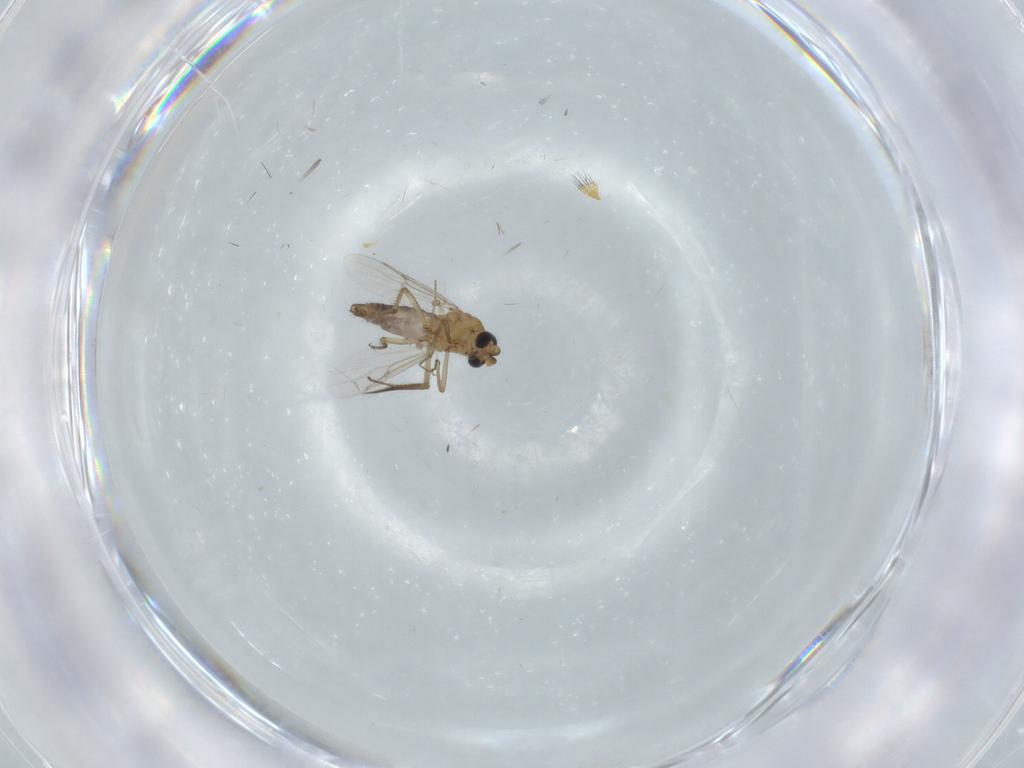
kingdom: Animalia
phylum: Arthropoda
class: Insecta
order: Diptera
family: Ceratopogonidae
